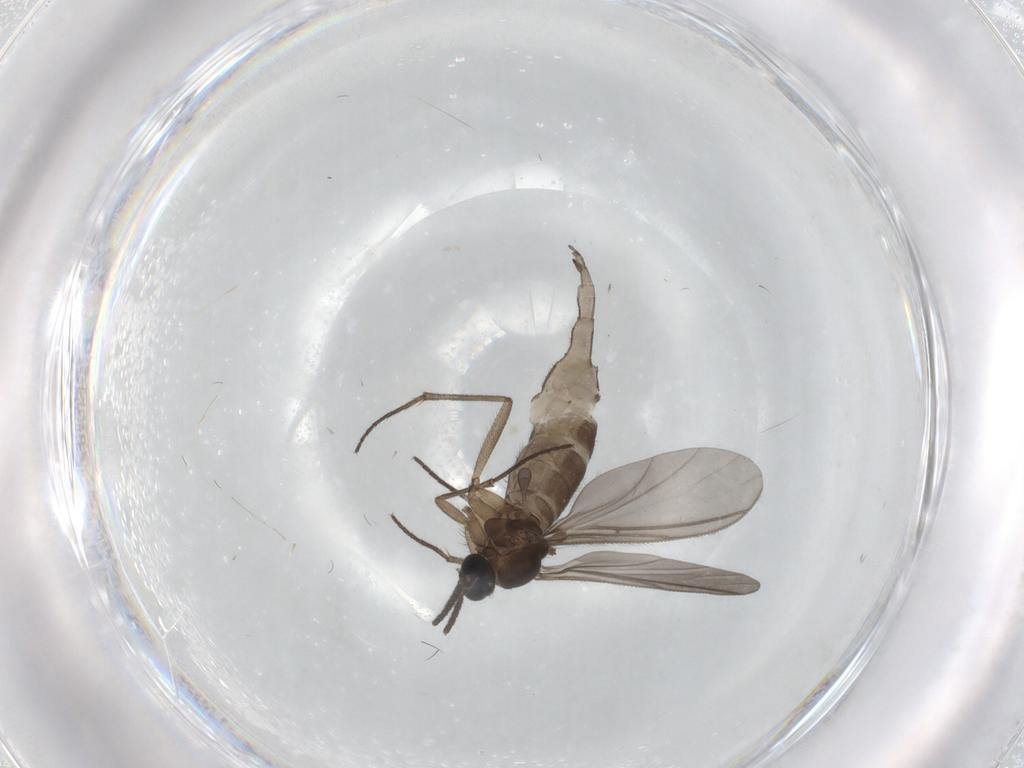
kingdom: Animalia
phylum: Arthropoda
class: Insecta
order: Diptera
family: Sciaridae
